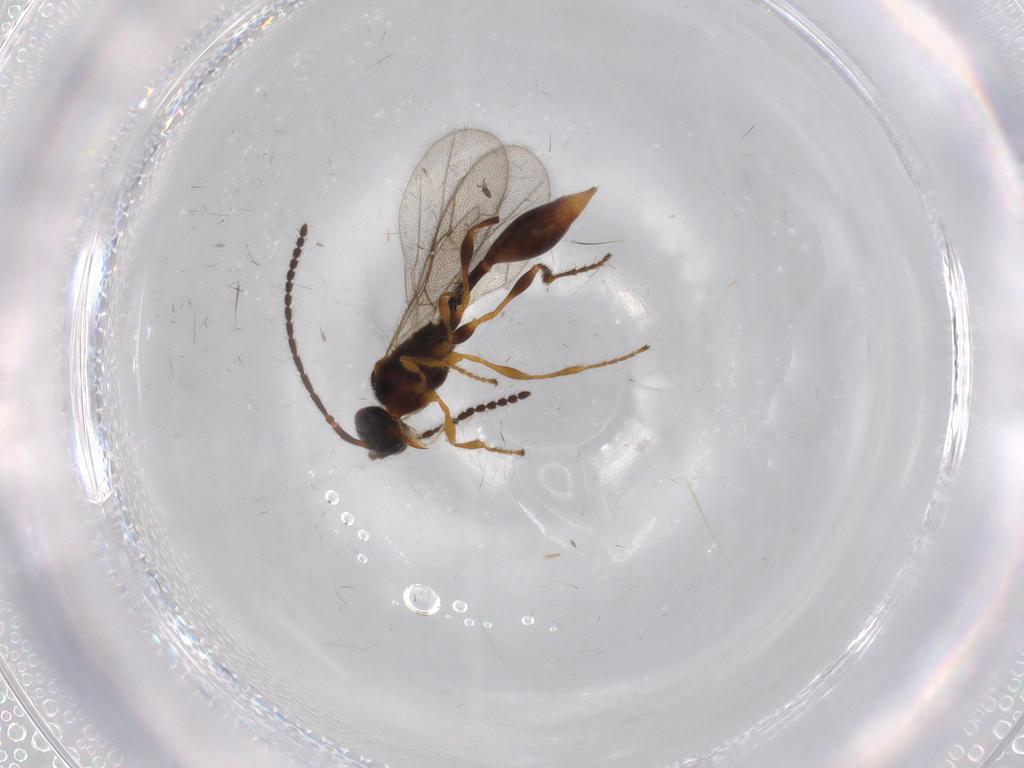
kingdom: Animalia
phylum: Arthropoda
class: Insecta
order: Hymenoptera
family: Diapriidae
